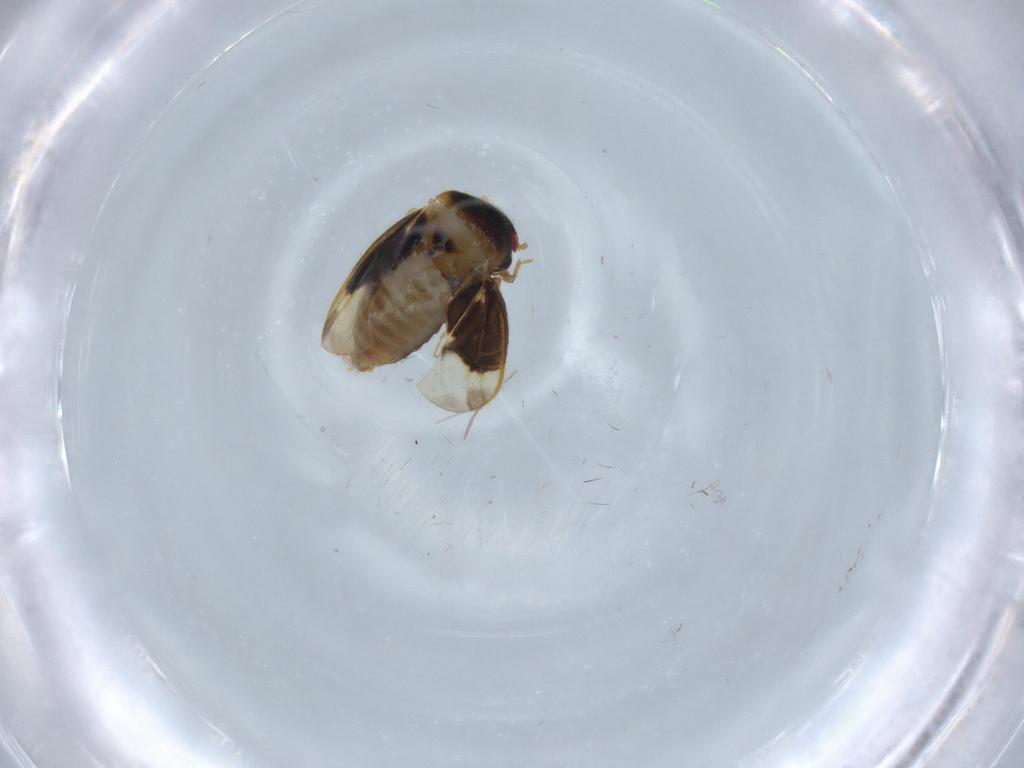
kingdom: Animalia
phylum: Arthropoda
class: Insecta
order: Hemiptera
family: Schizopteridae
